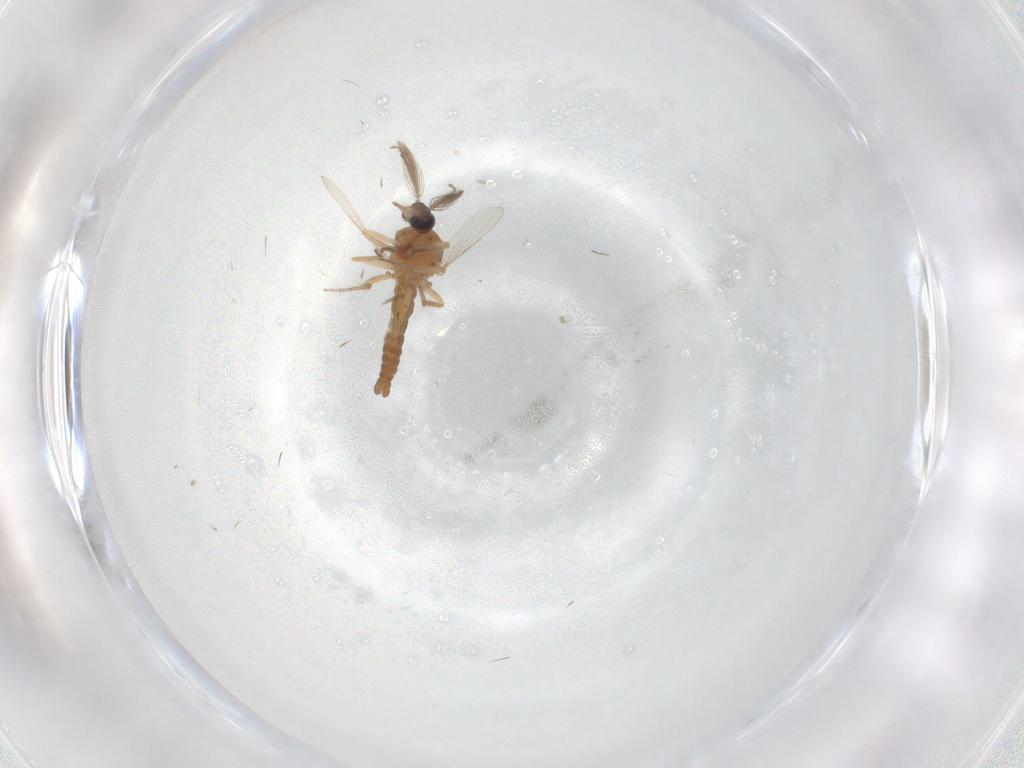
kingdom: Animalia
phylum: Arthropoda
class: Insecta
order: Diptera
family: Ceratopogonidae
